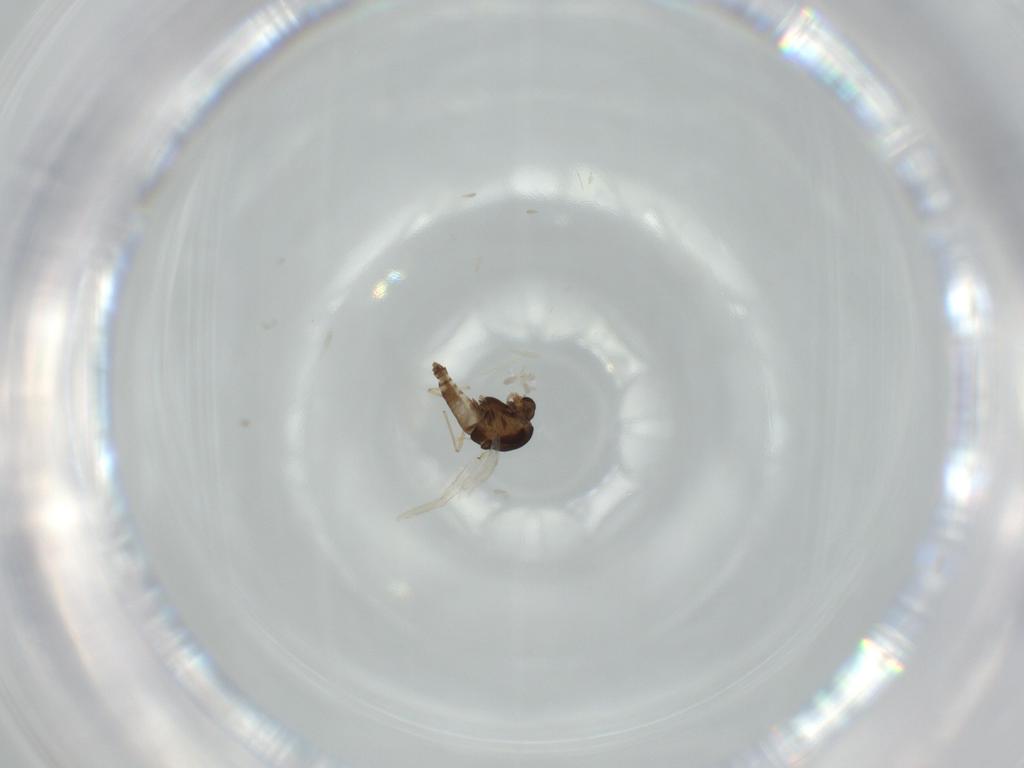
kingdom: Animalia
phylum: Arthropoda
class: Insecta
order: Diptera
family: Chironomidae
